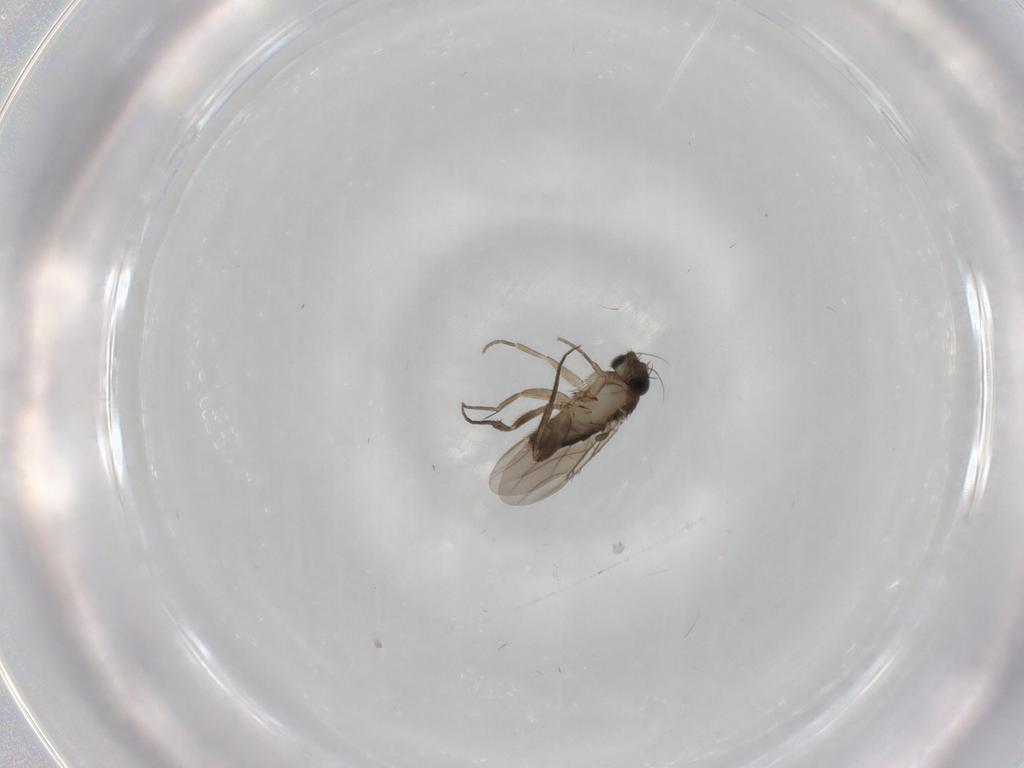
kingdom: Animalia
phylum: Arthropoda
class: Insecta
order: Diptera
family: Phoridae
